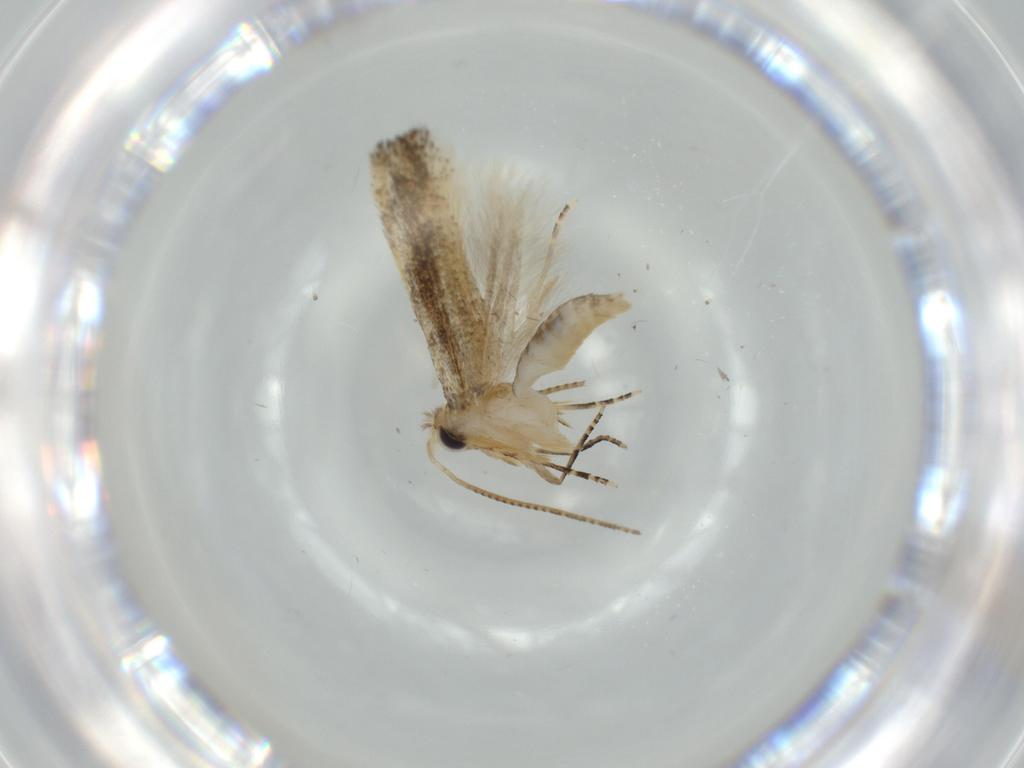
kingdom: Animalia
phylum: Arthropoda
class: Insecta
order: Lepidoptera
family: Bucculatricidae
